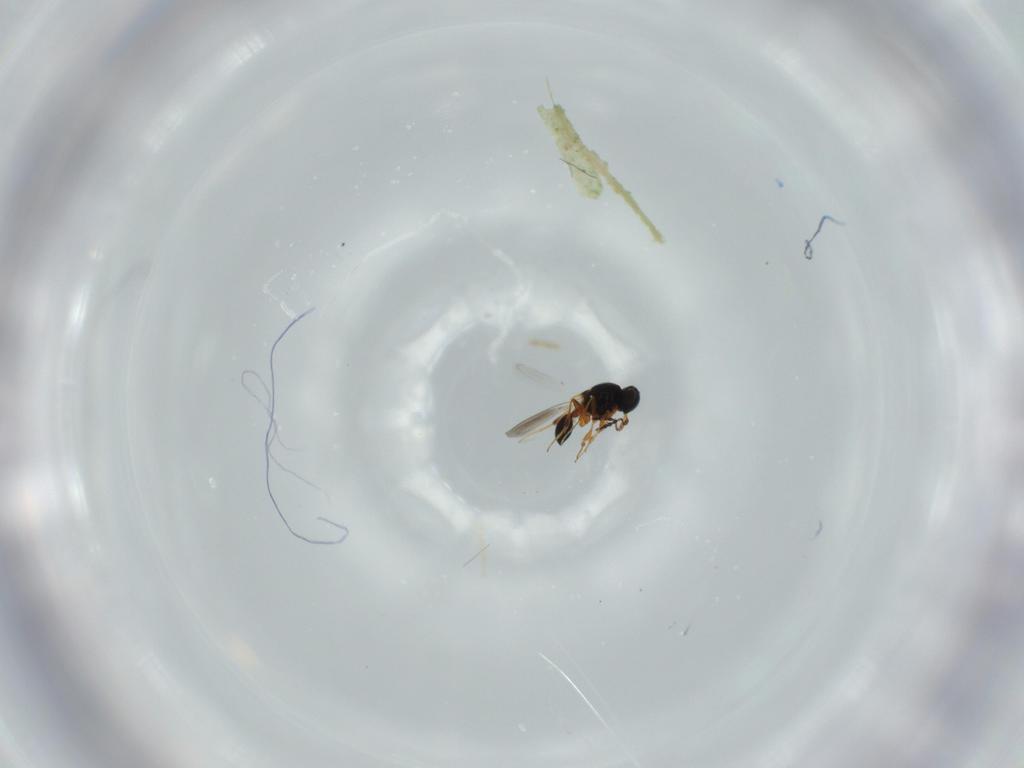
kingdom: Animalia
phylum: Arthropoda
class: Insecta
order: Hymenoptera
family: Platygastridae
